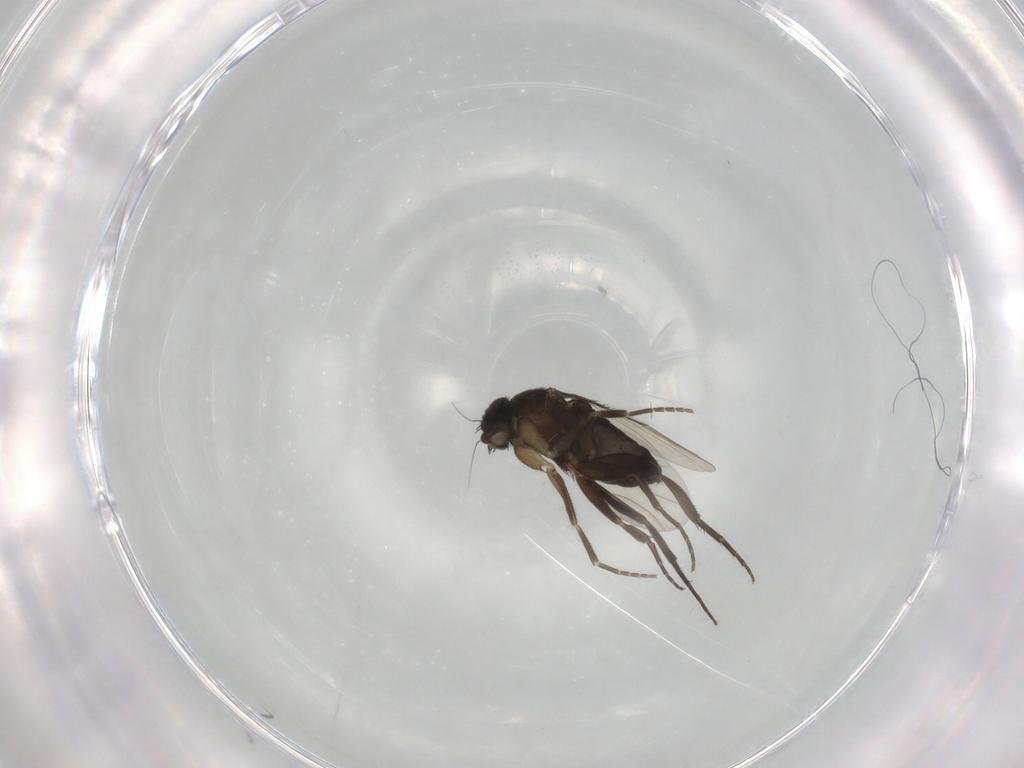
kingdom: Animalia
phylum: Arthropoda
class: Insecta
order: Diptera
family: Phoridae
